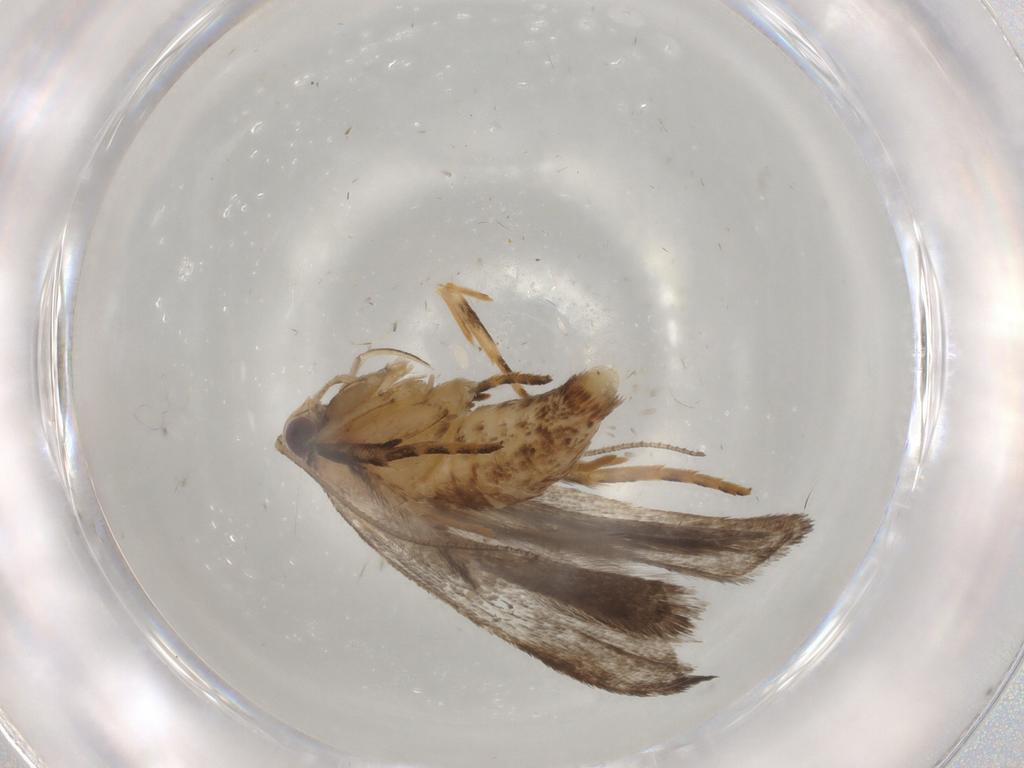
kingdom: Animalia
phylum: Arthropoda
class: Insecta
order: Lepidoptera
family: Gelechiidae
